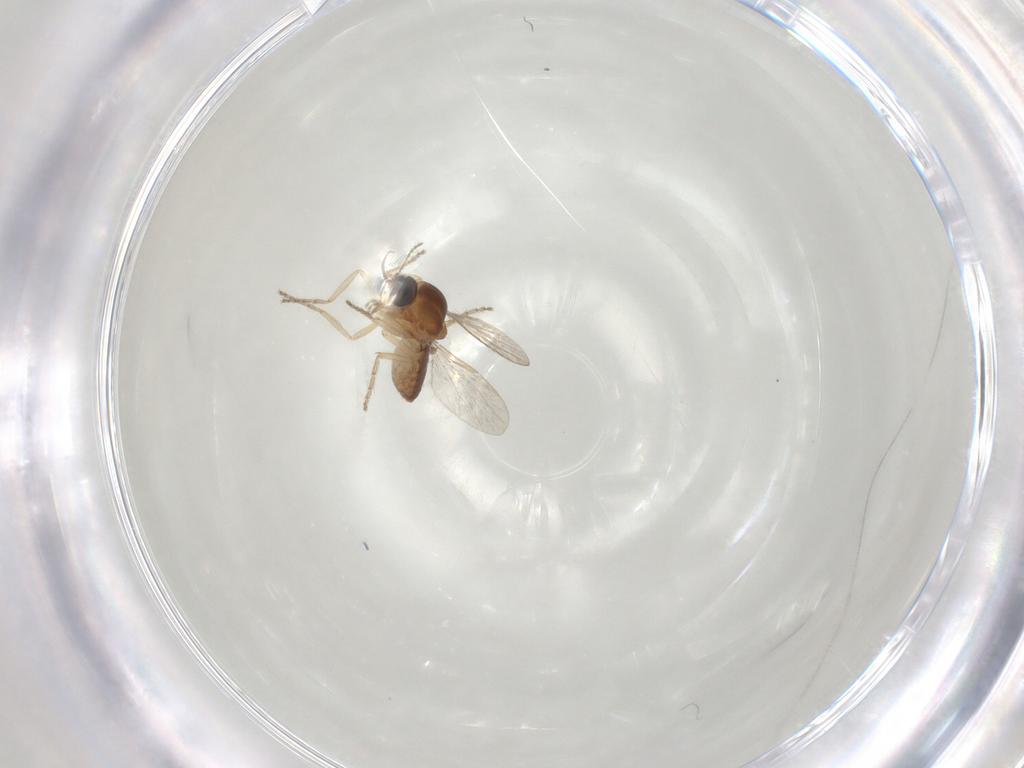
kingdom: Animalia
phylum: Arthropoda
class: Insecta
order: Diptera
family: Ceratopogonidae
